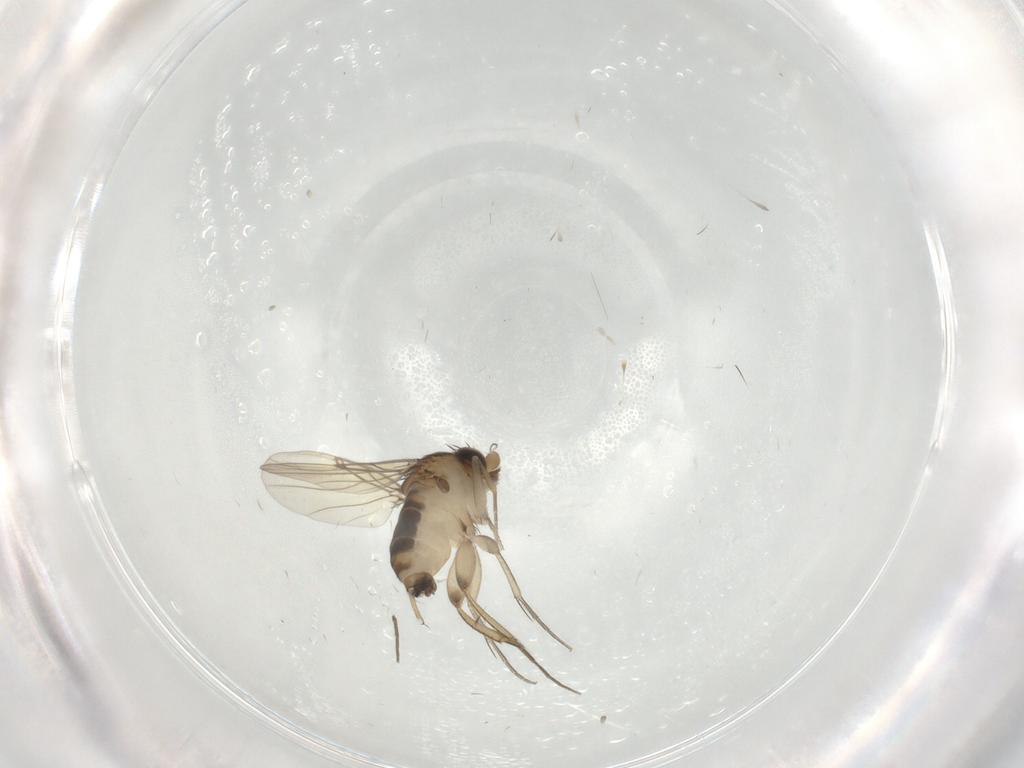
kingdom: Animalia
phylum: Arthropoda
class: Insecta
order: Diptera
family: Phoridae
